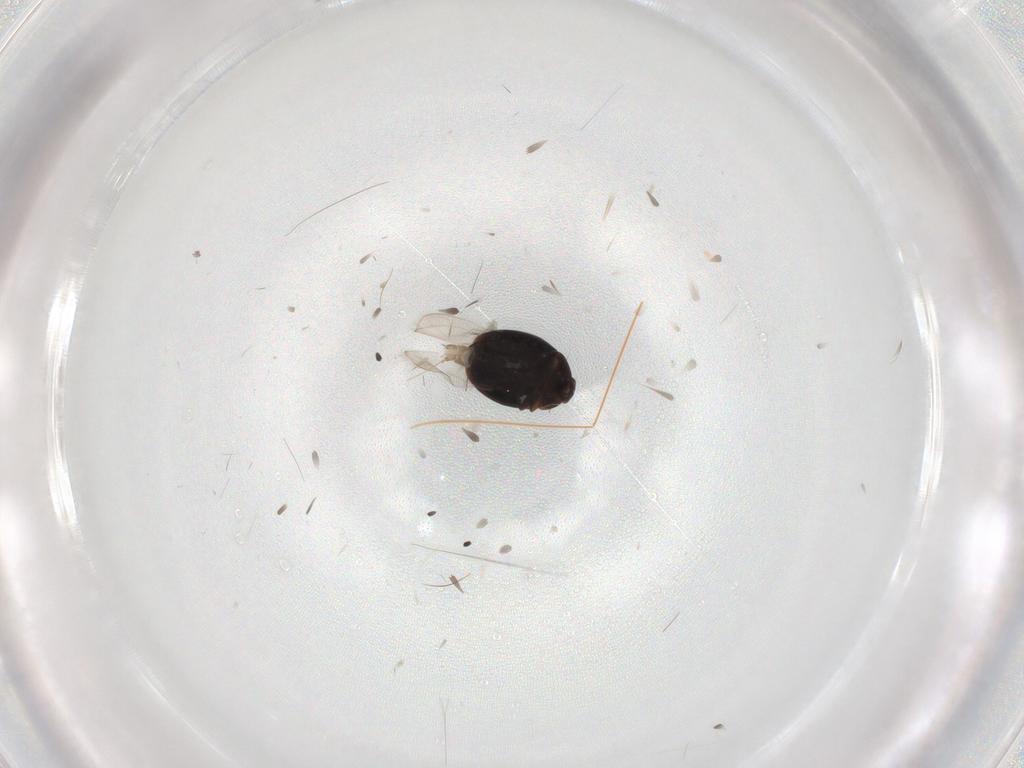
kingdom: Animalia
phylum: Arthropoda
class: Insecta
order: Coleoptera
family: Corylophidae
